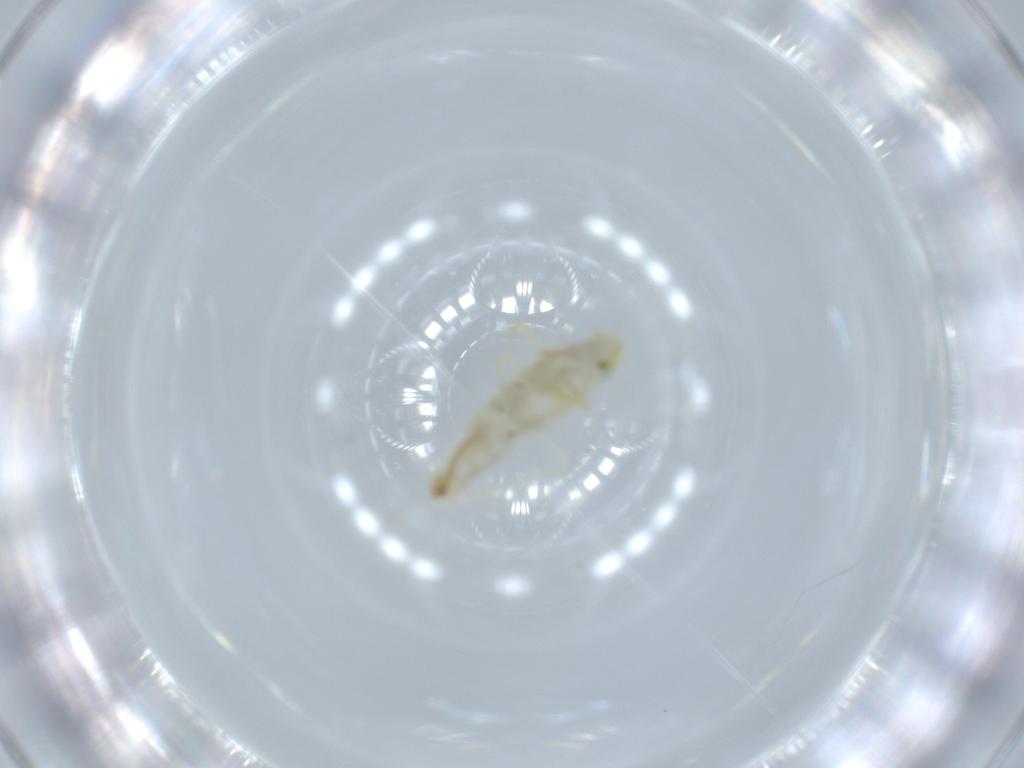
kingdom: Animalia
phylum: Arthropoda
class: Insecta
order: Hemiptera
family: Cicadellidae
